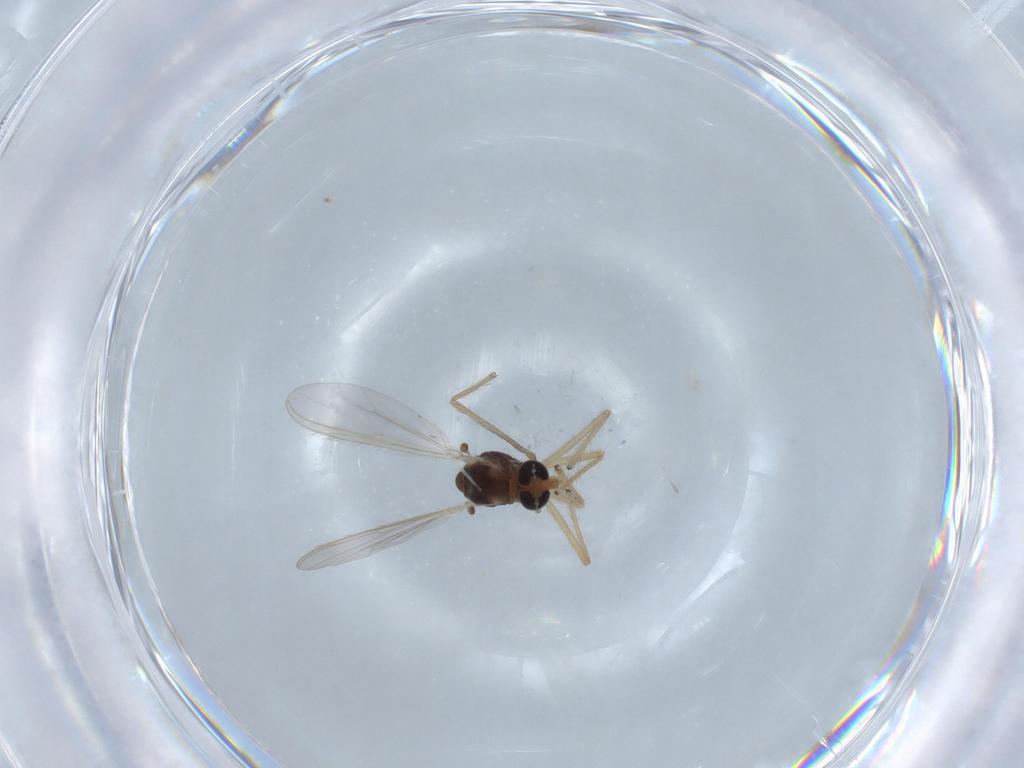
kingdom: Animalia
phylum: Arthropoda
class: Insecta
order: Diptera
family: Chironomidae
